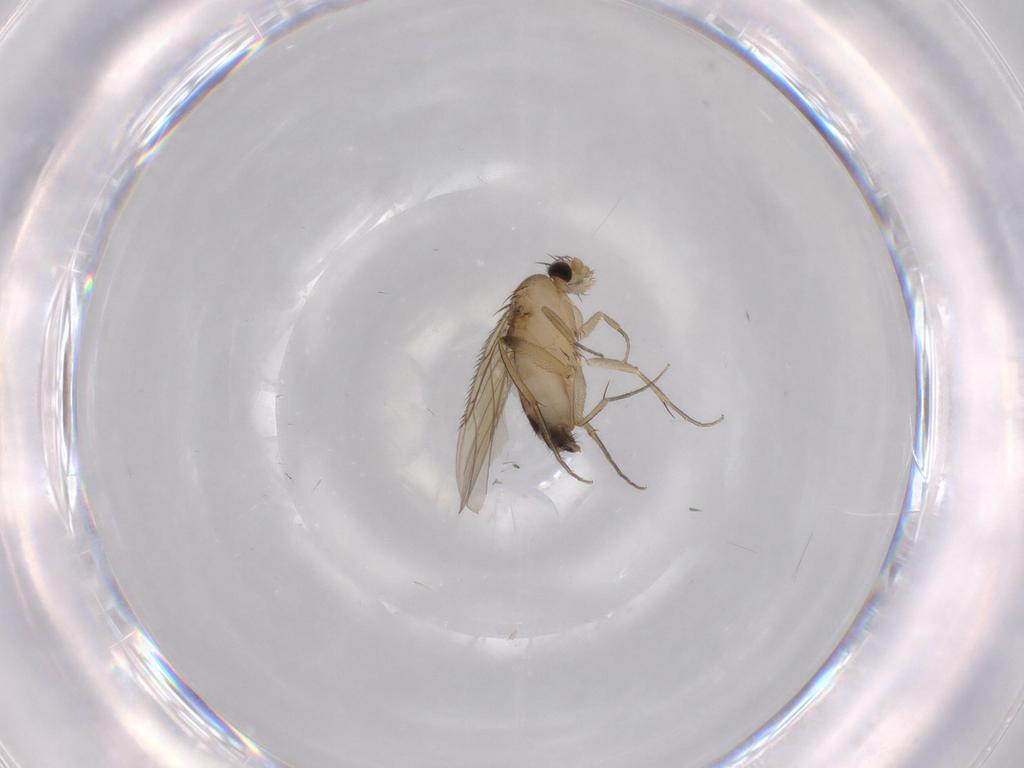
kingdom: Animalia
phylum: Arthropoda
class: Insecta
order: Diptera
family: Phoridae
